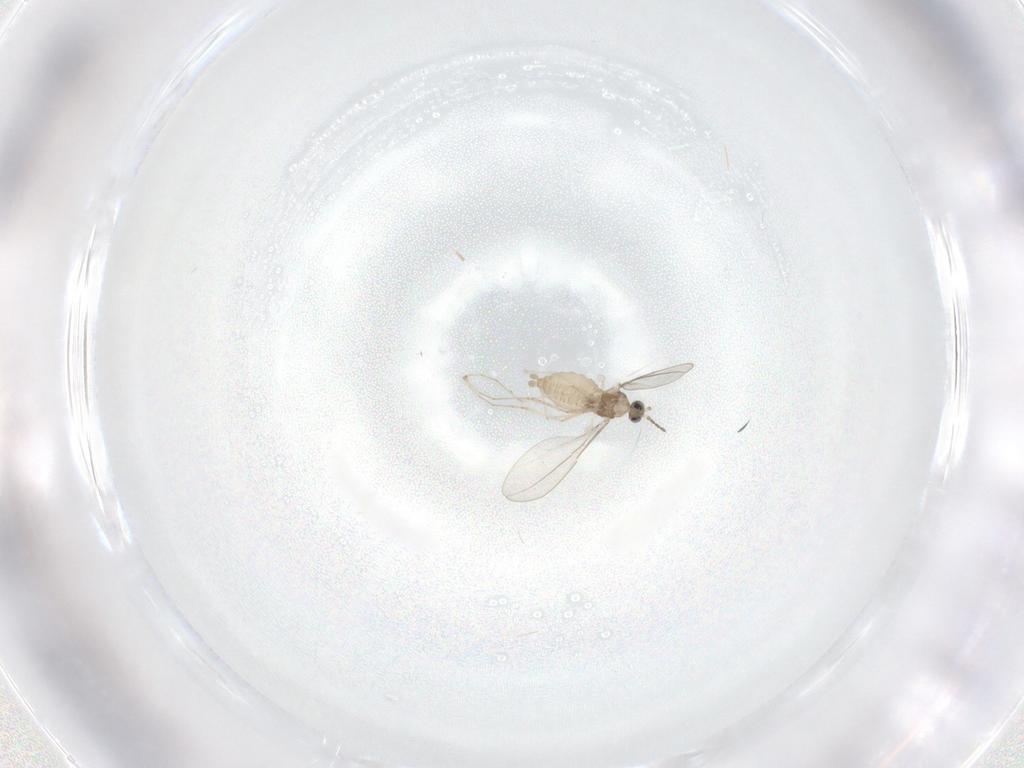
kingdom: Animalia
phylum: Arthropoda
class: Insecta
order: Diptera
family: Cecidomyiidae
